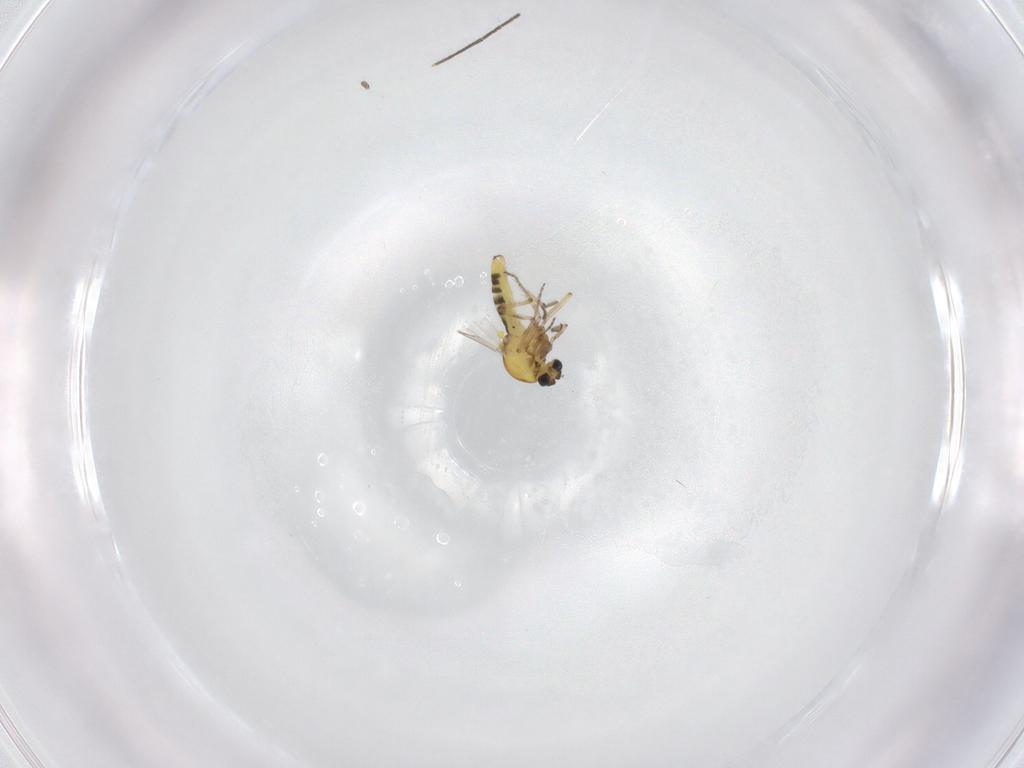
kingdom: Animalia
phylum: Arthropoda
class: Insecta
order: Diptera
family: Mycetophilidae
